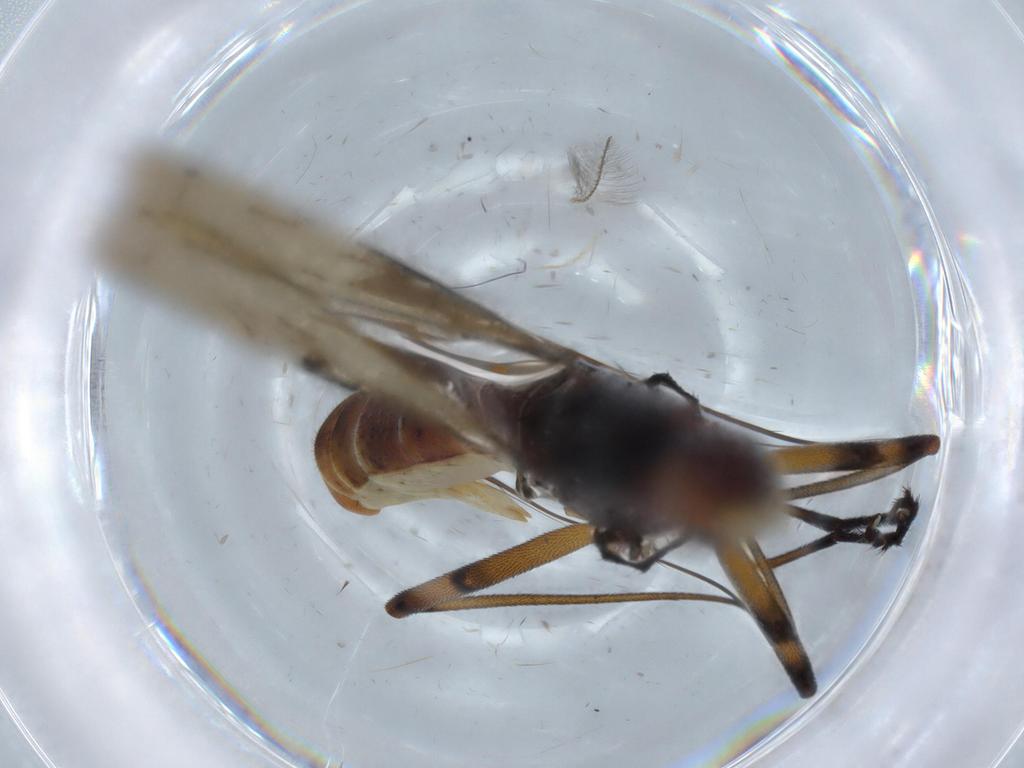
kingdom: Animalia
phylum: Arthropoda
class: Insecta
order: Diptera
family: Neriidae
